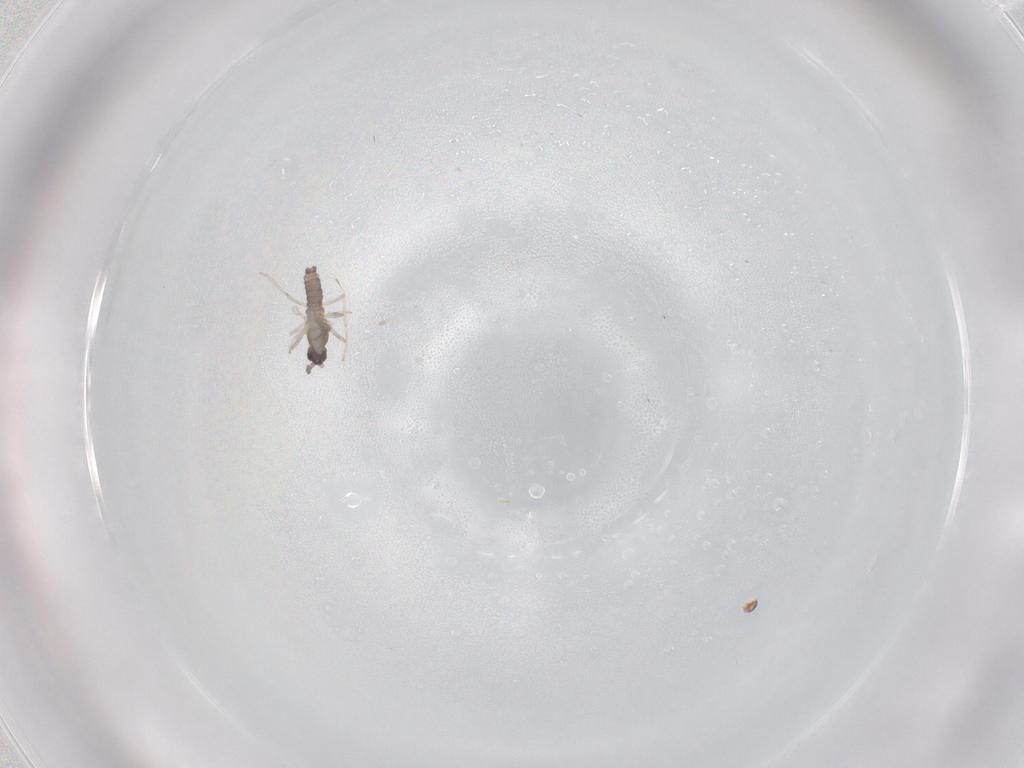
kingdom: Animalia
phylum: Arthropoda
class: Insecta
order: Diptera
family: Cecidomyiidae
